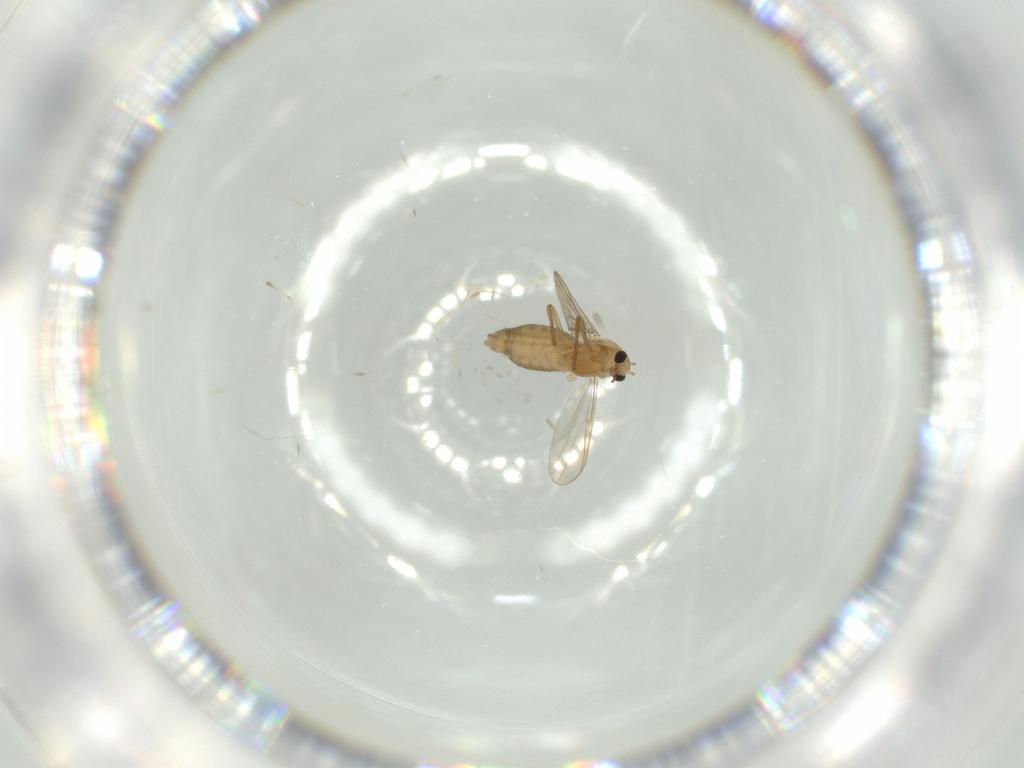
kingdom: Animalia
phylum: Arthropoda
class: Insecta
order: Diptera
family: Chironomidae
